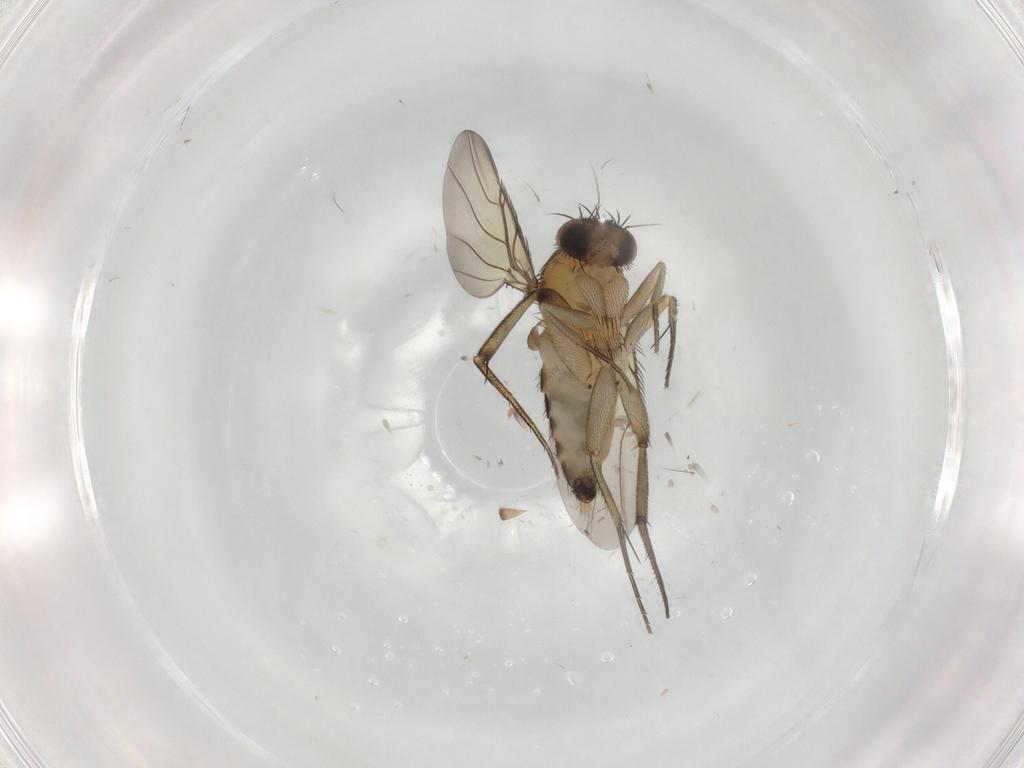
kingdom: Animalia
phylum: Arthropoda
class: Insecta
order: Diptera
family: Phoridae
